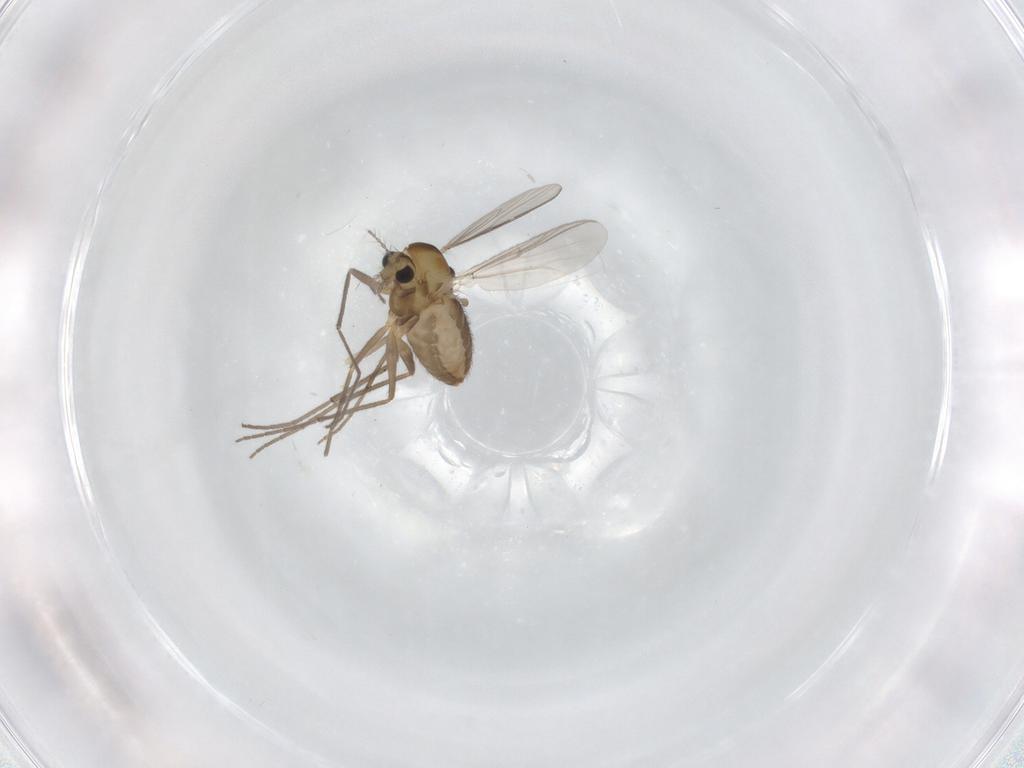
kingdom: Animalia
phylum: Arthropoda
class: Insecta
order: Diptera
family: Chironomidae
